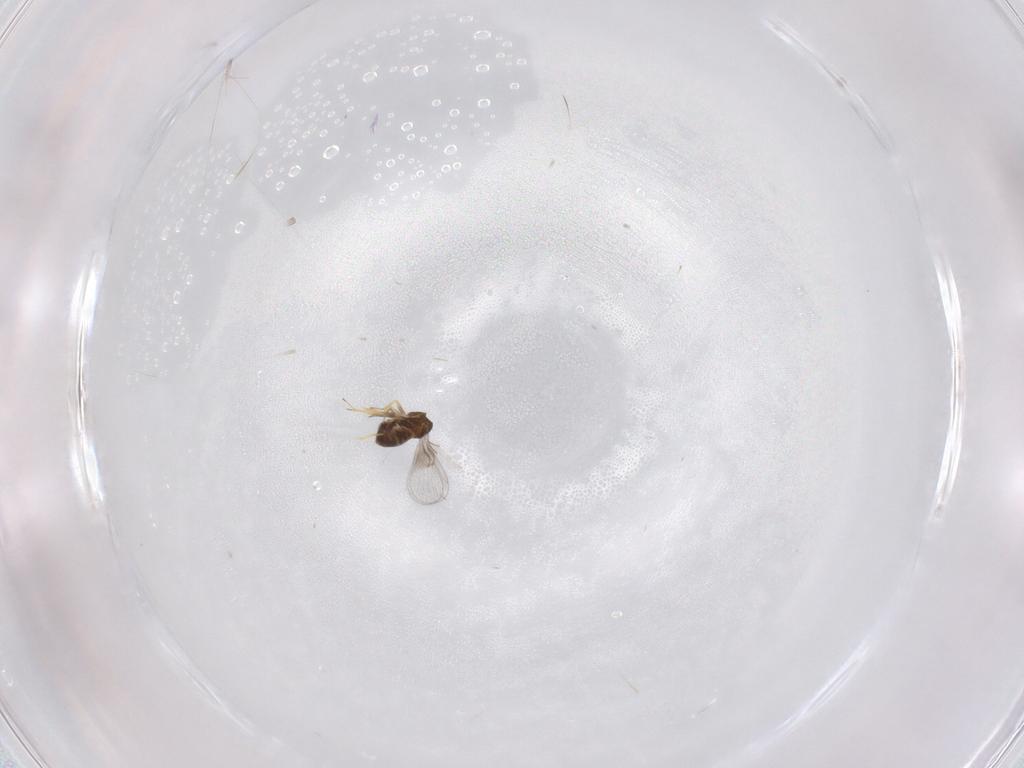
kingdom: Animalia
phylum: Arthropoda
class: Insecta
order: Hymenoptera
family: Trichogrammatidae
